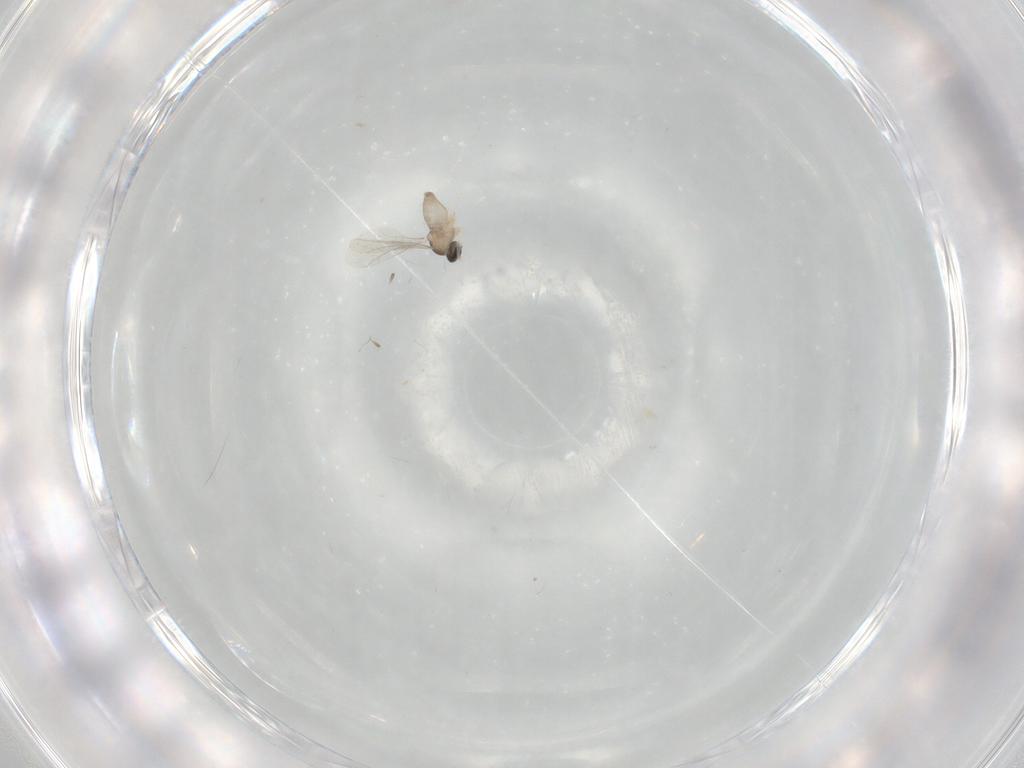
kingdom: Animalia
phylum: Arthropoda
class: Insecta
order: Diptera
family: Cecidomyiidae
